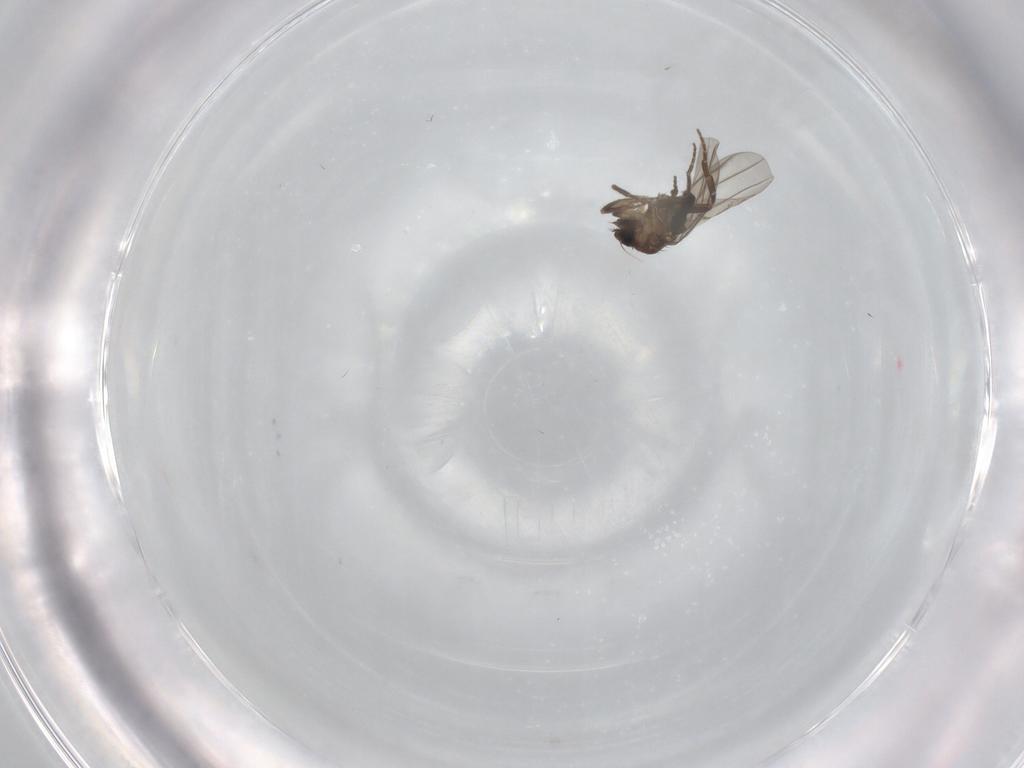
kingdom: Animalia
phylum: Arthropoda
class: Insecta
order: Diptera
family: Phoridae
